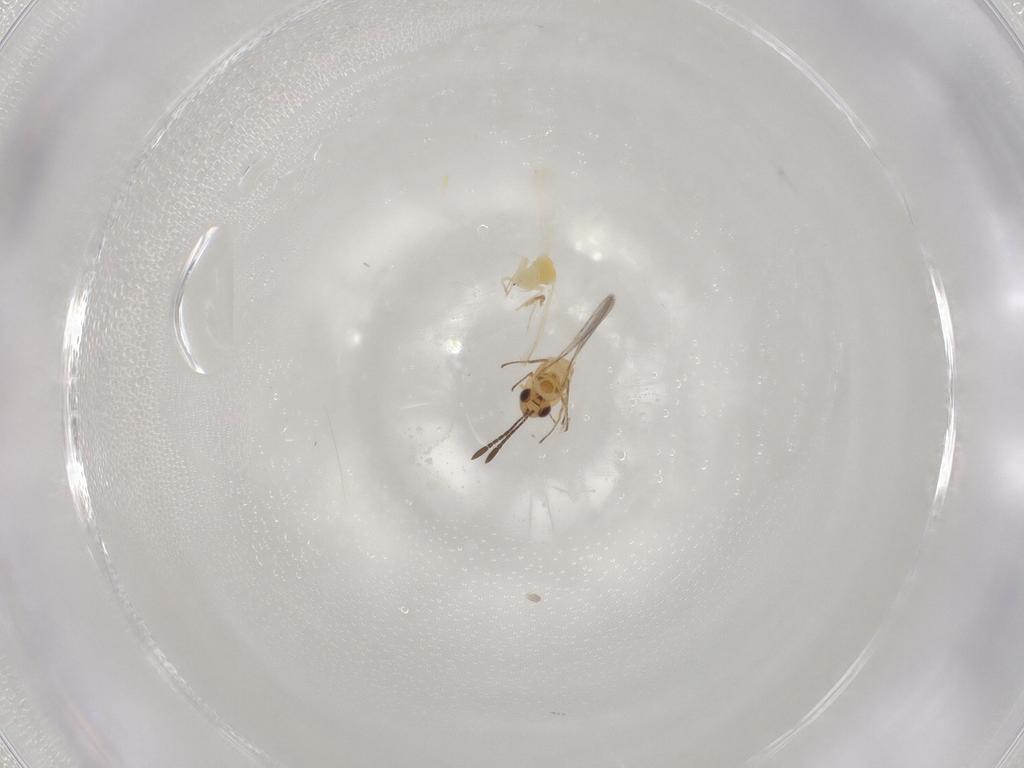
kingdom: Animalia
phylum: Arthropoda
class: Insecta
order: Diptera
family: Scatopsidae
